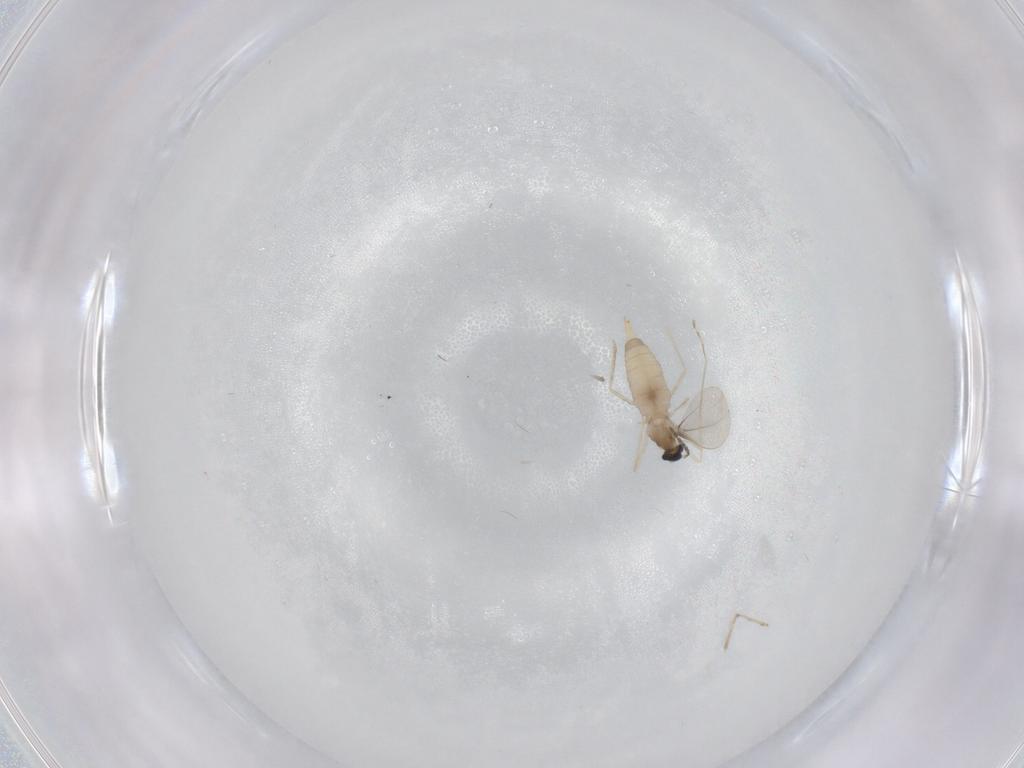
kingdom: Animalia
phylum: Arthropoda
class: Insecta
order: Diptera
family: Cecidomyiidae
